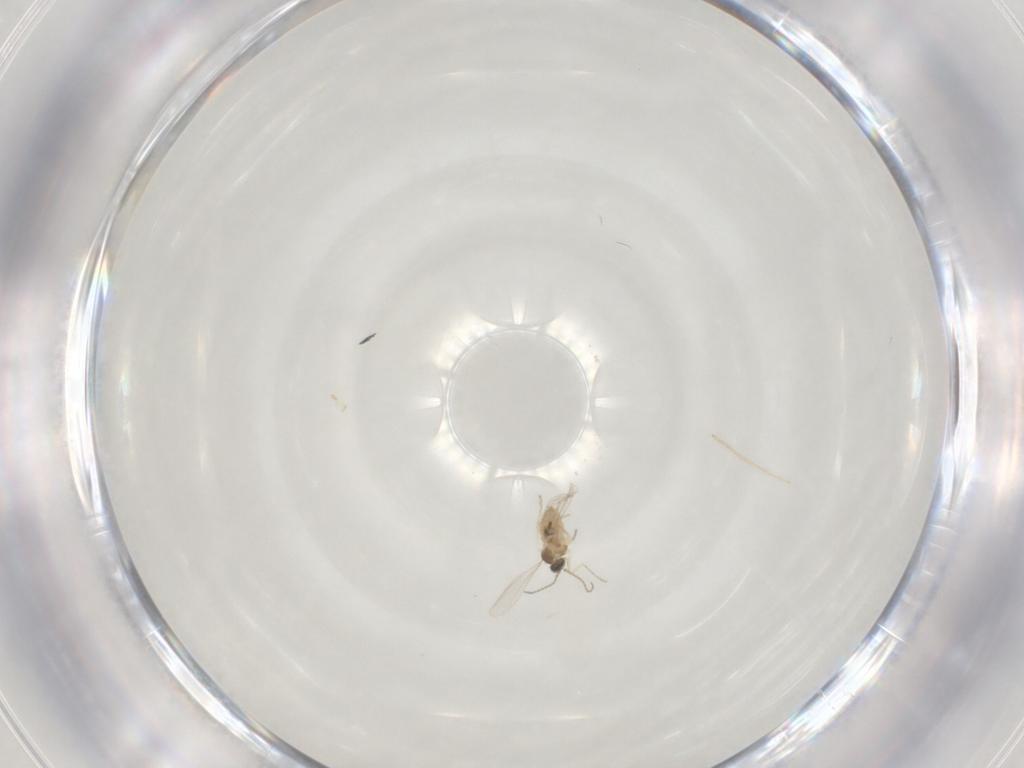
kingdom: Animalia
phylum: Arthropoda
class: Insecta
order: Diptera
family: Cecidomyiidae
